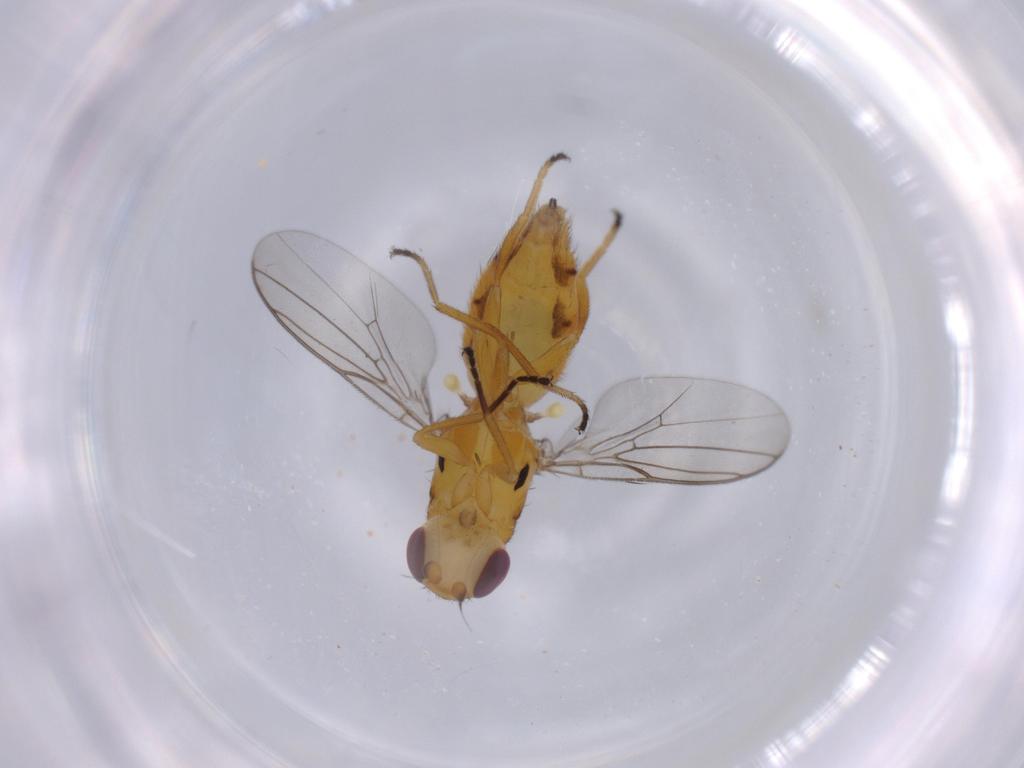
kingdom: Animalia
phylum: Arthropoda
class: Insecta
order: Diptera
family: Chloropidae
